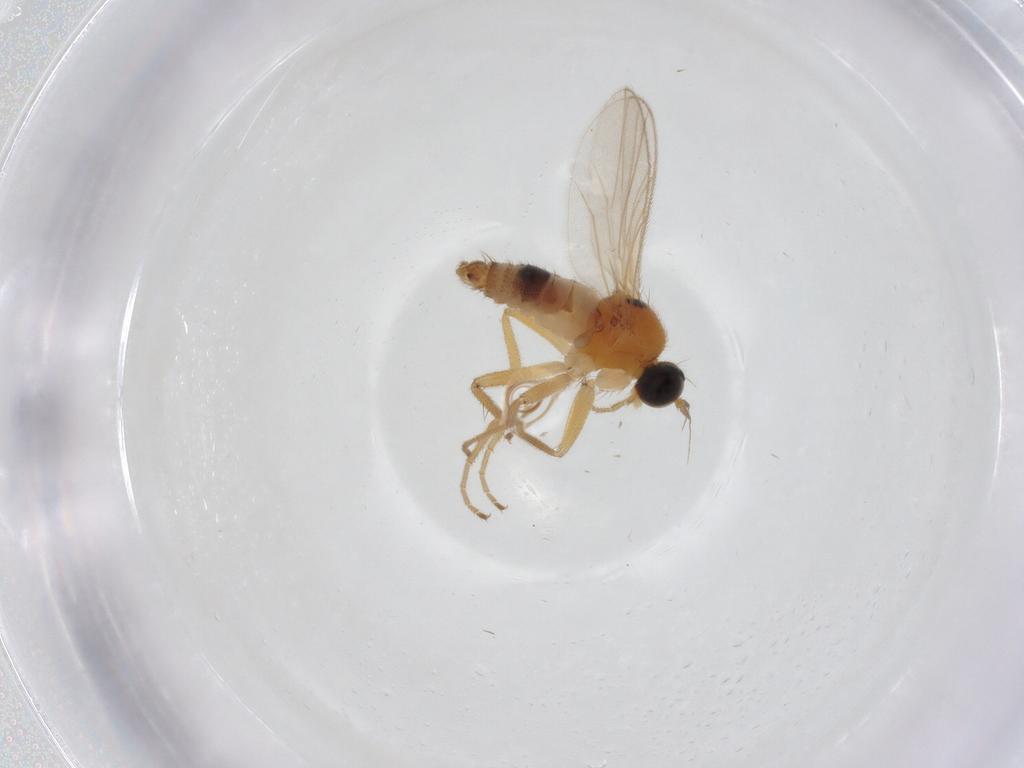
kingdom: Animalia
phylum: Arthropoda
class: Insecta
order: Diptera
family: Hybotidae
